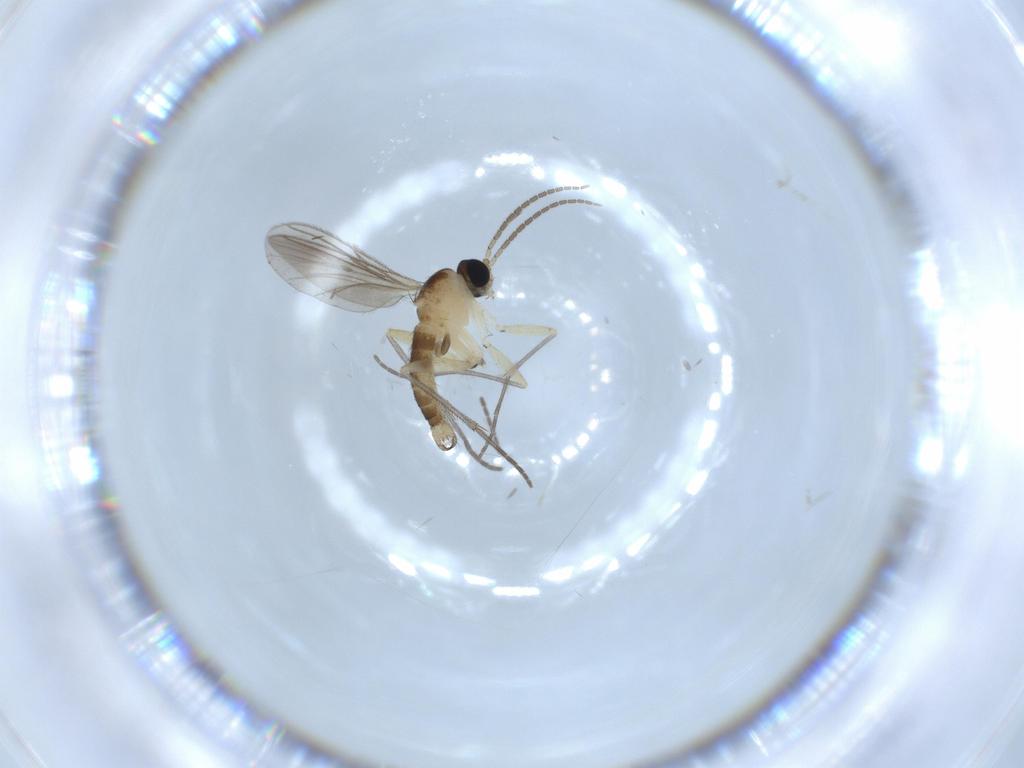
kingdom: Animalia
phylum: Arthropoda
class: Insecta
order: Diptera
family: Sciaridae
